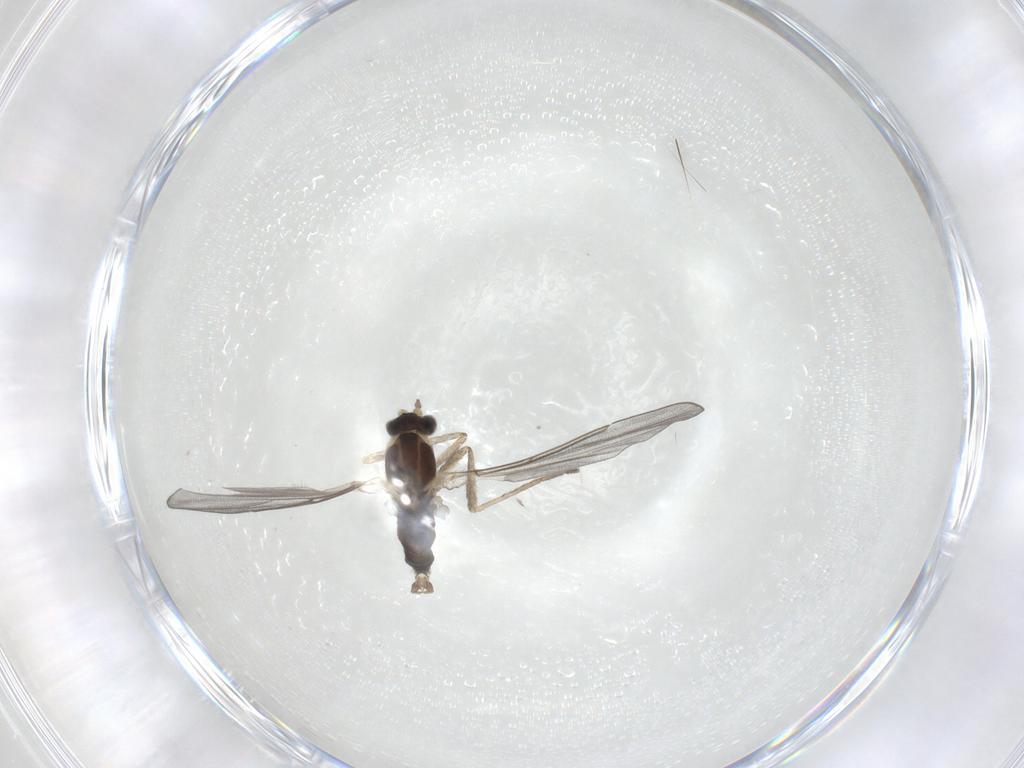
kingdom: Animalia
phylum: Arthropoda
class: Insecta
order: Diptera
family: Cecidomyiidae
